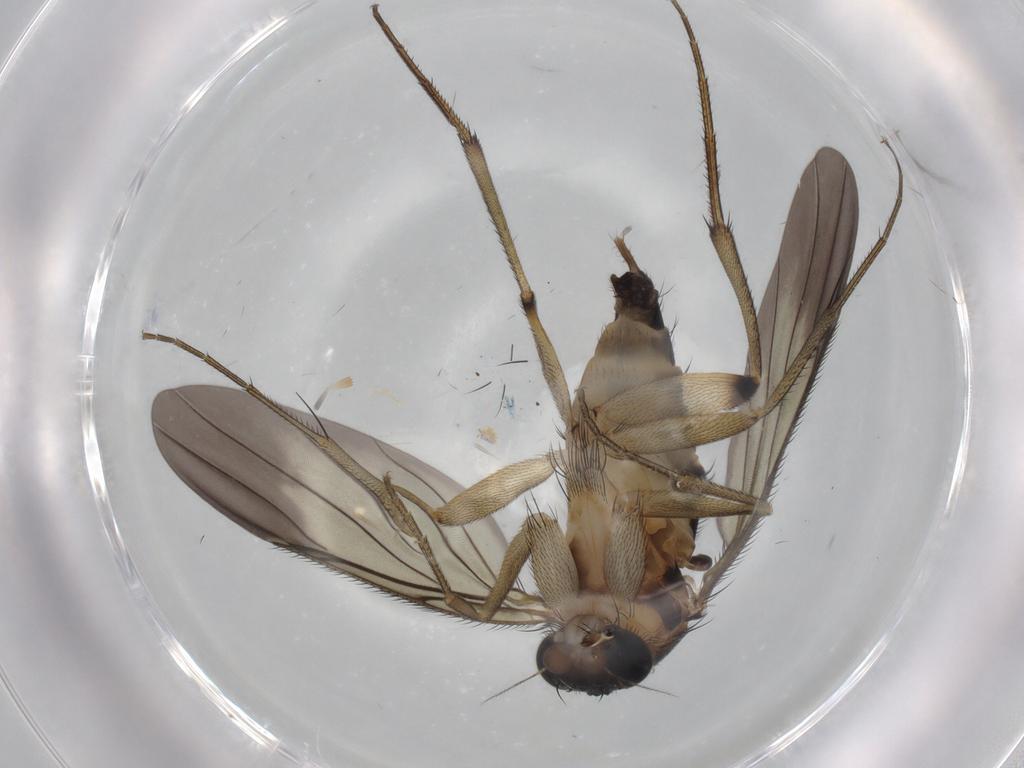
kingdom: Animalia
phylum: Arthropoda
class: Insecta
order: Diptera
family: Phoridae
